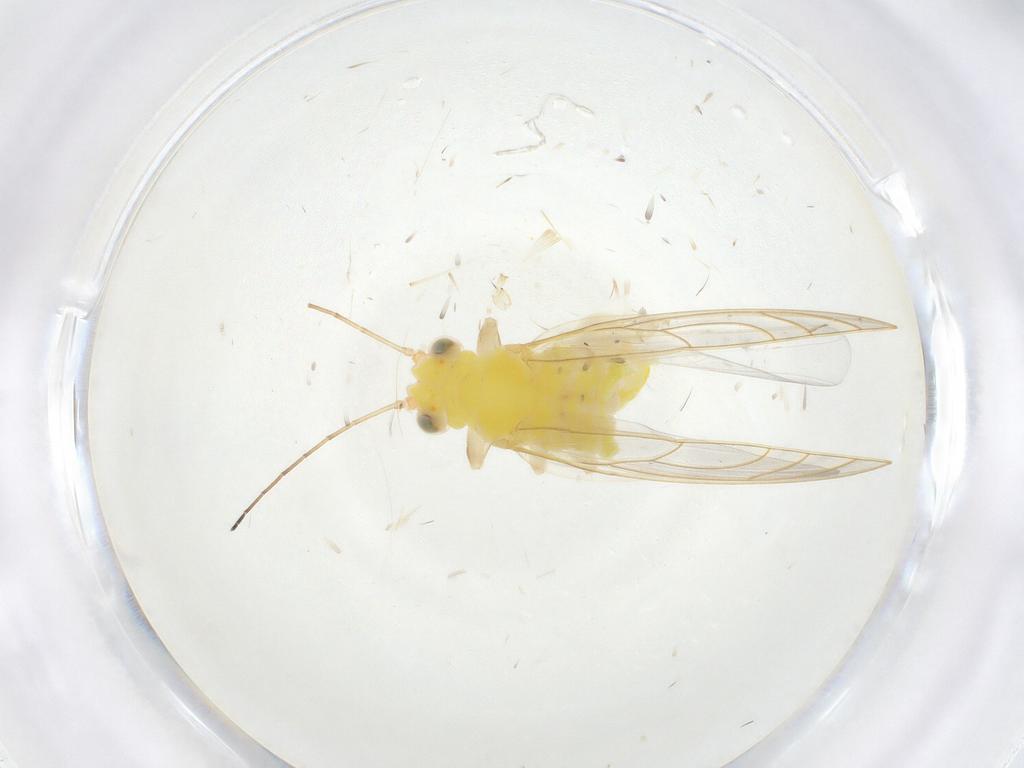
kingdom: Animalia
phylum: Arthropoda
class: Insecta
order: Hemiptera
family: Aphalaridae
